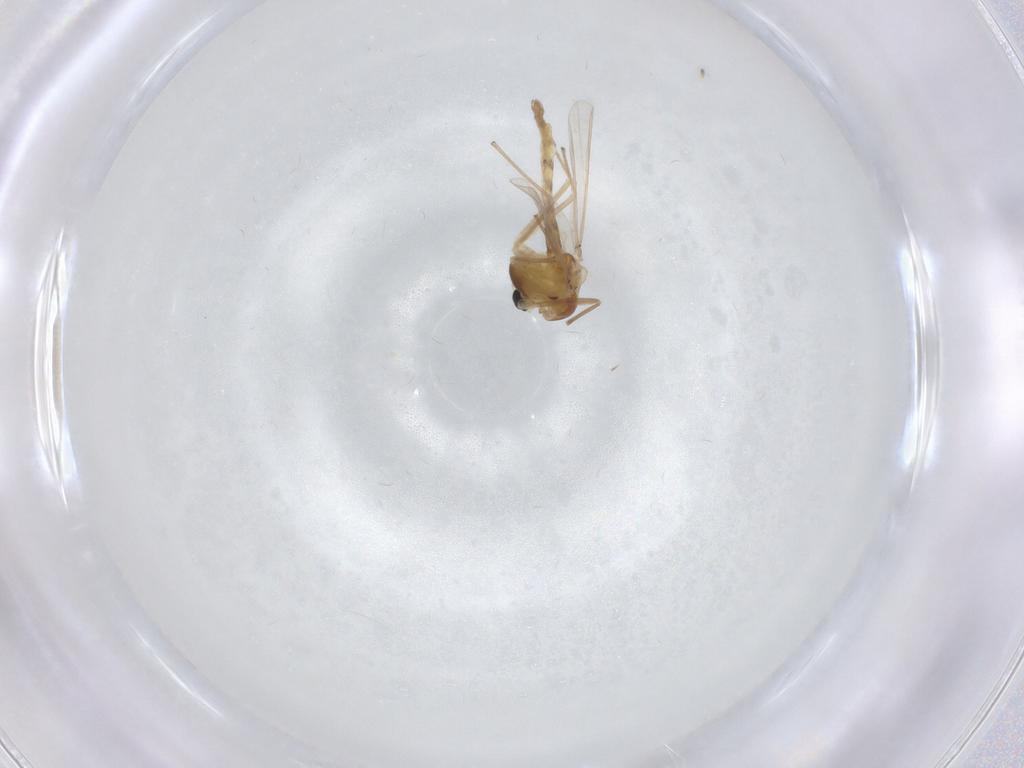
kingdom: Animalia
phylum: Arthropoda
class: Insecta
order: Diptera
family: Chironomidae
